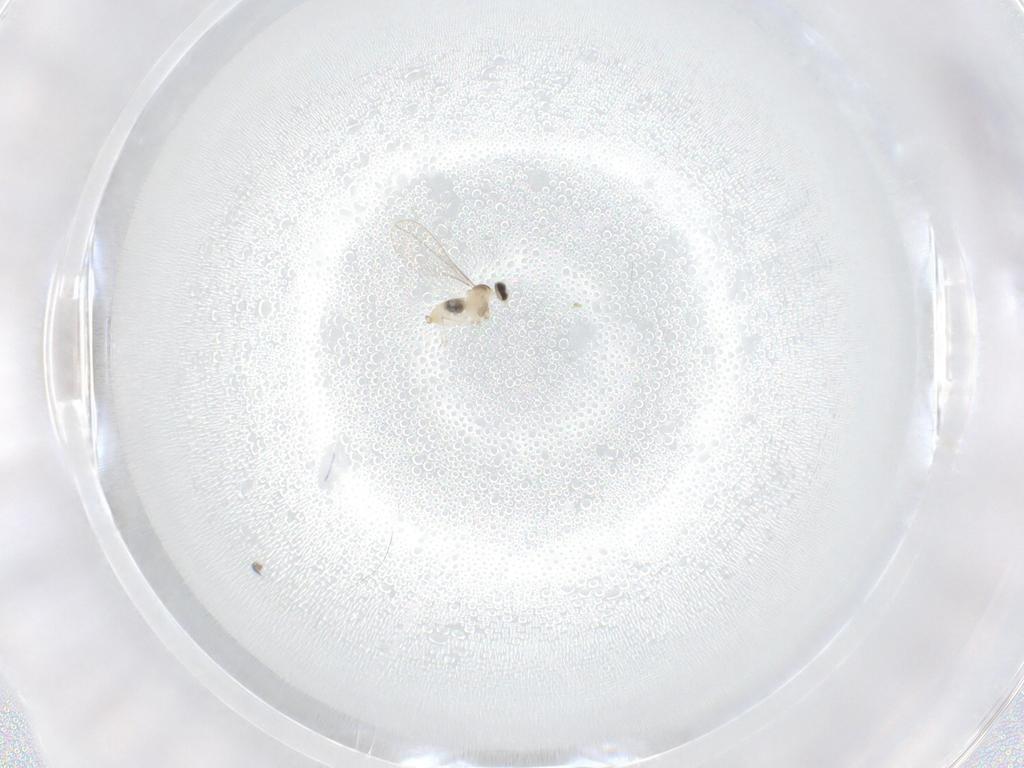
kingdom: Animalia
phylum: Arthropoda
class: Insecta
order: Diptera
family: Cecidomyiidae
